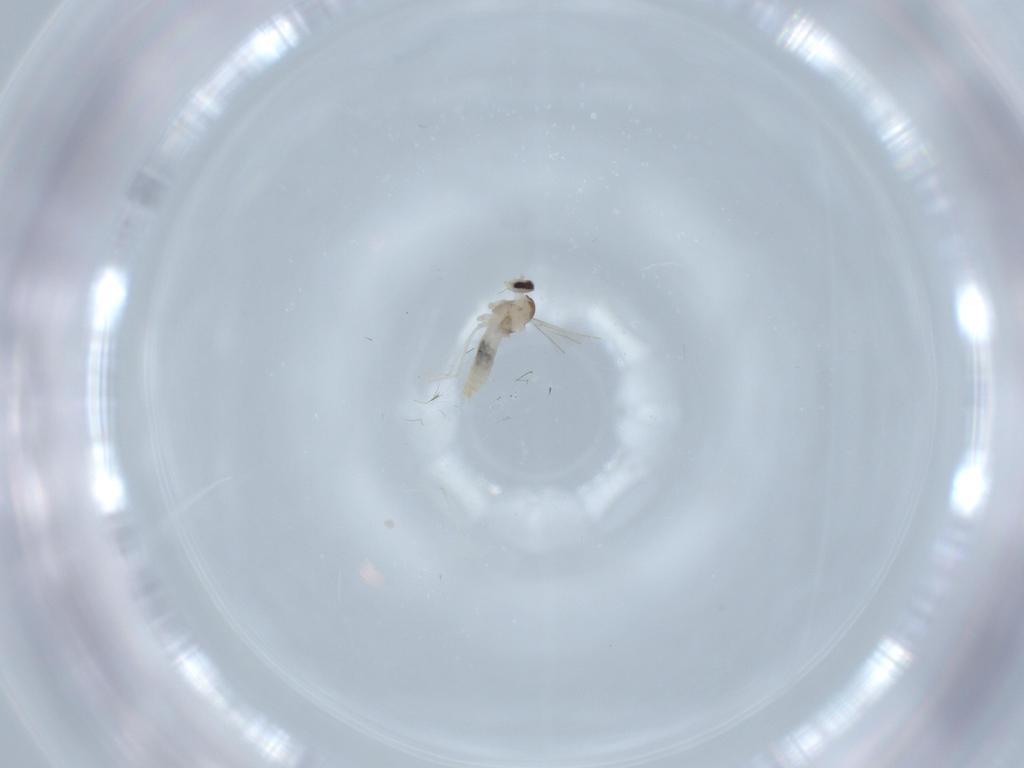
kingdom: Animalia
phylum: Arthropoda
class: Insecta
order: Diptera
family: Cecidomyiidae
